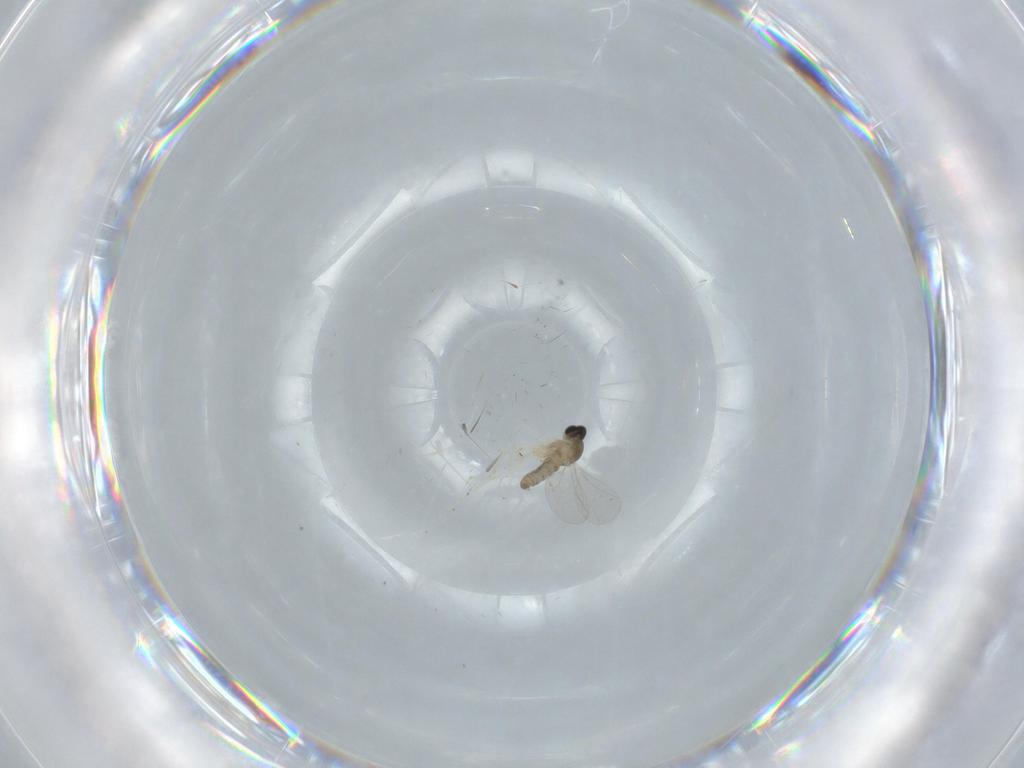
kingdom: Animalia
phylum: Arthropoda
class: Insecta
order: Diptera
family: Cecidomyiidae
